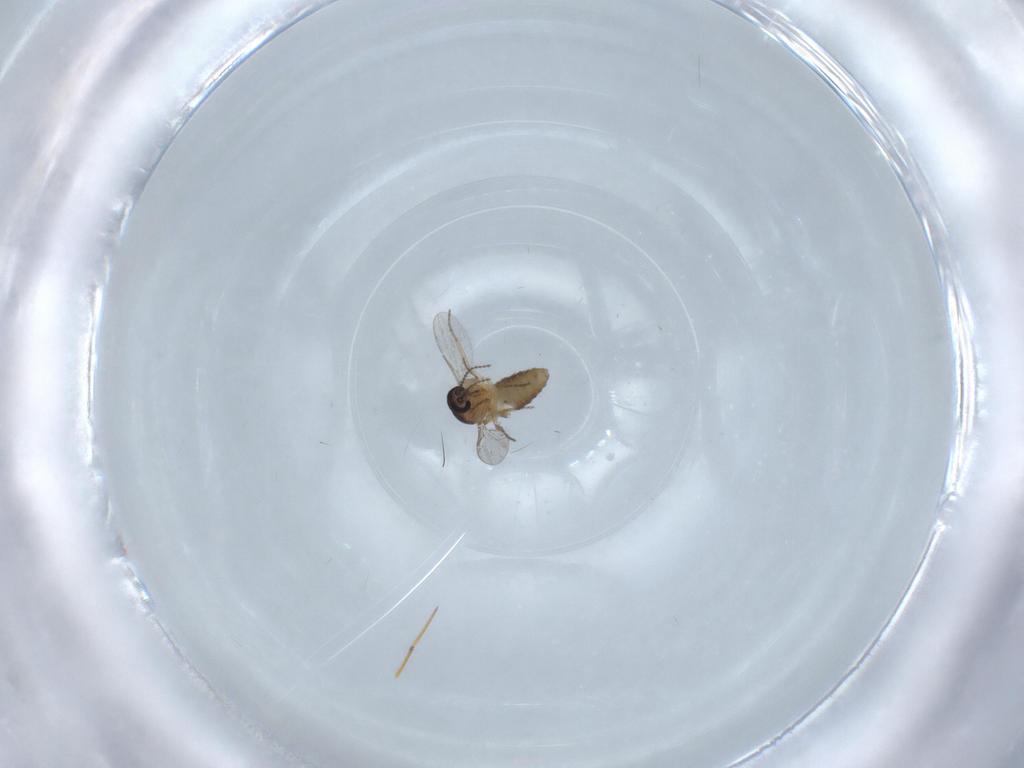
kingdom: Animalia
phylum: Arthropoda
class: Insecta
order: Diptera
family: Ceratopogonidae
